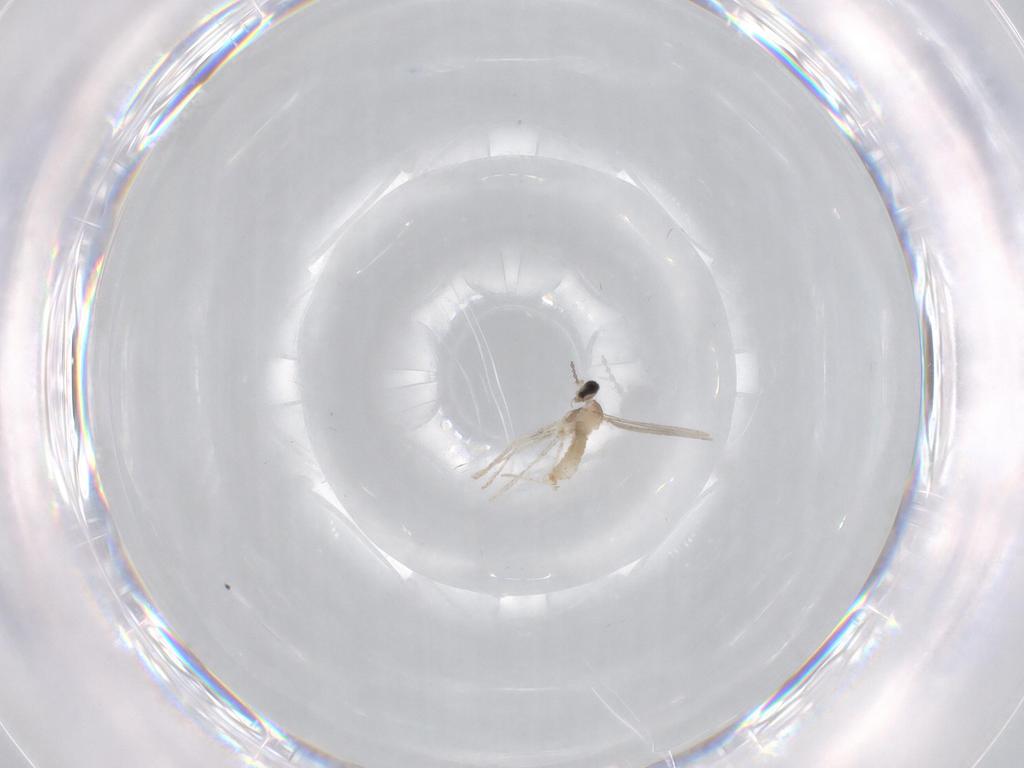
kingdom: Animalia
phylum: Arthropoda
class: Insecta
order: Diptera
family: Cecidomyiidae
